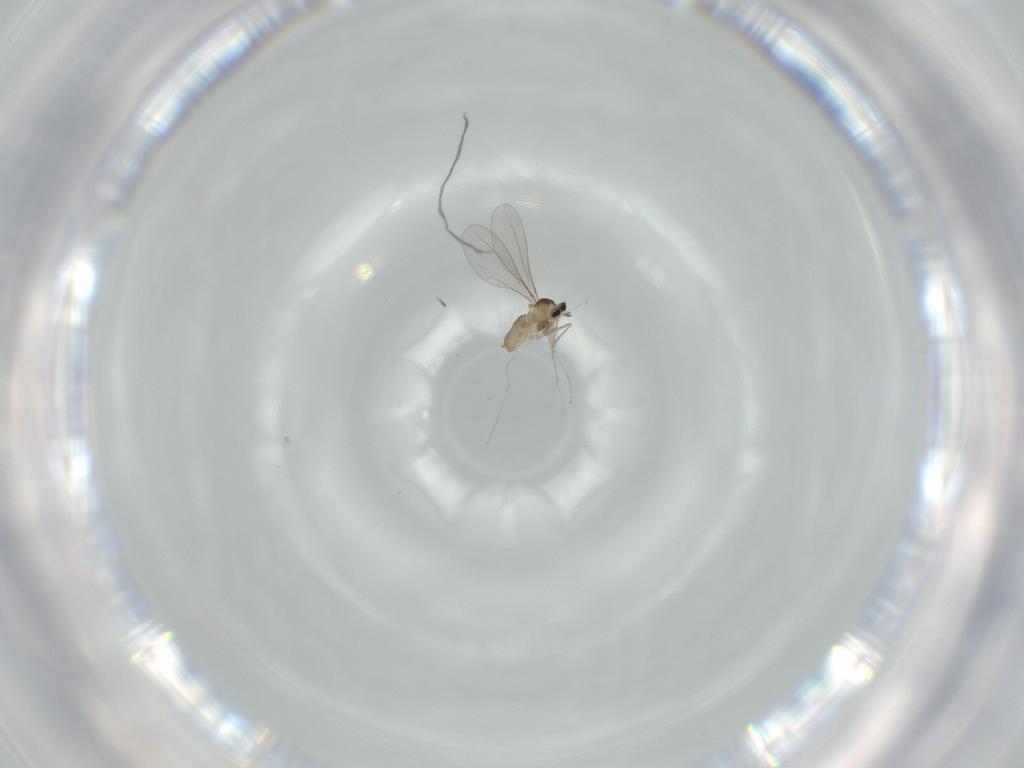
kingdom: Animalia
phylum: Arthropoda
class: Insecta
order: Diptera
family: Cecidomyiidae
